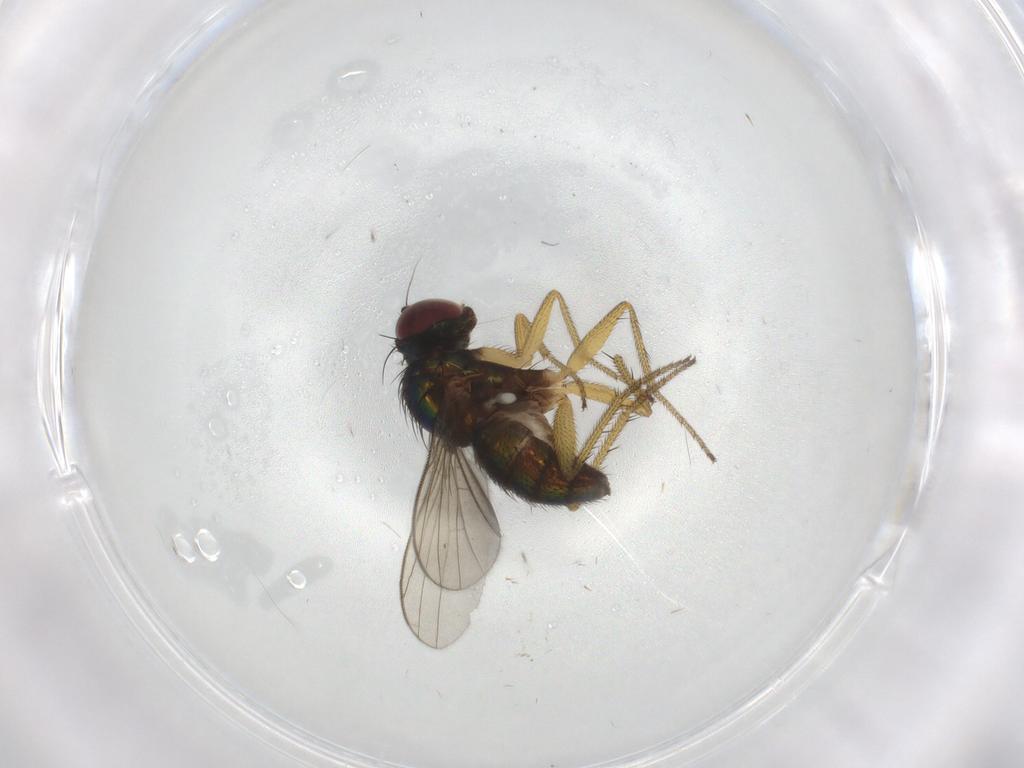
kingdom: Animalia
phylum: Arthropoda
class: Insecta
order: Diptera
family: Dolichopodidae
